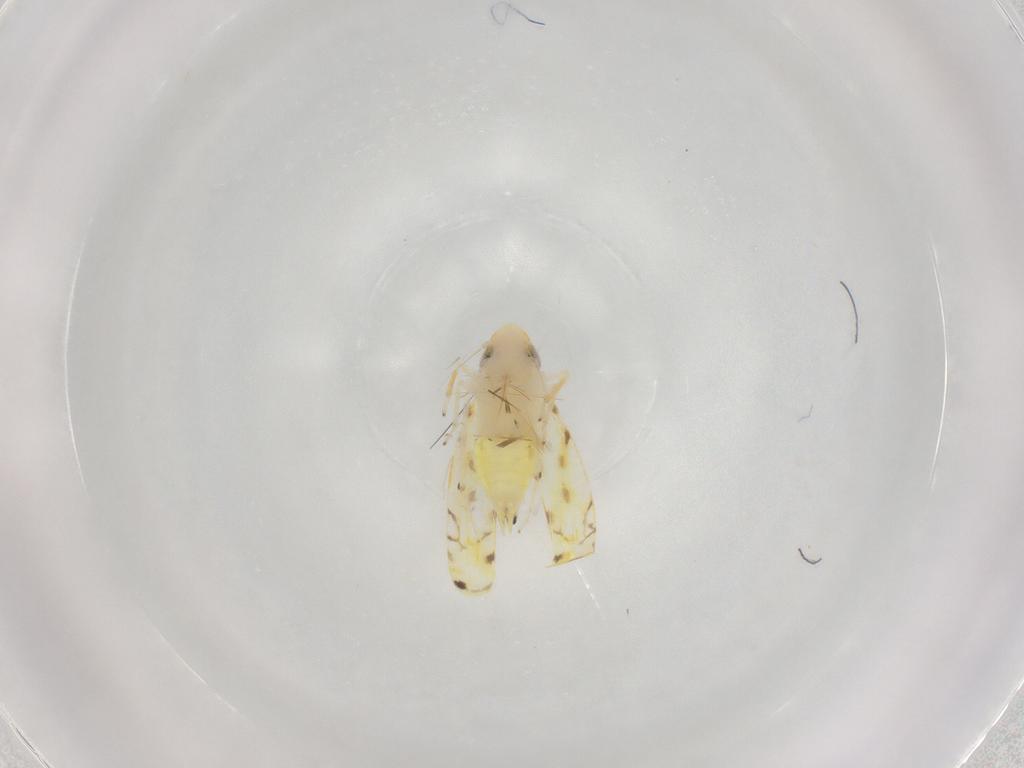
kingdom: Animalia
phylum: Arthropoda
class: Insecta
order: Hemiptera
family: Cicadellidae
